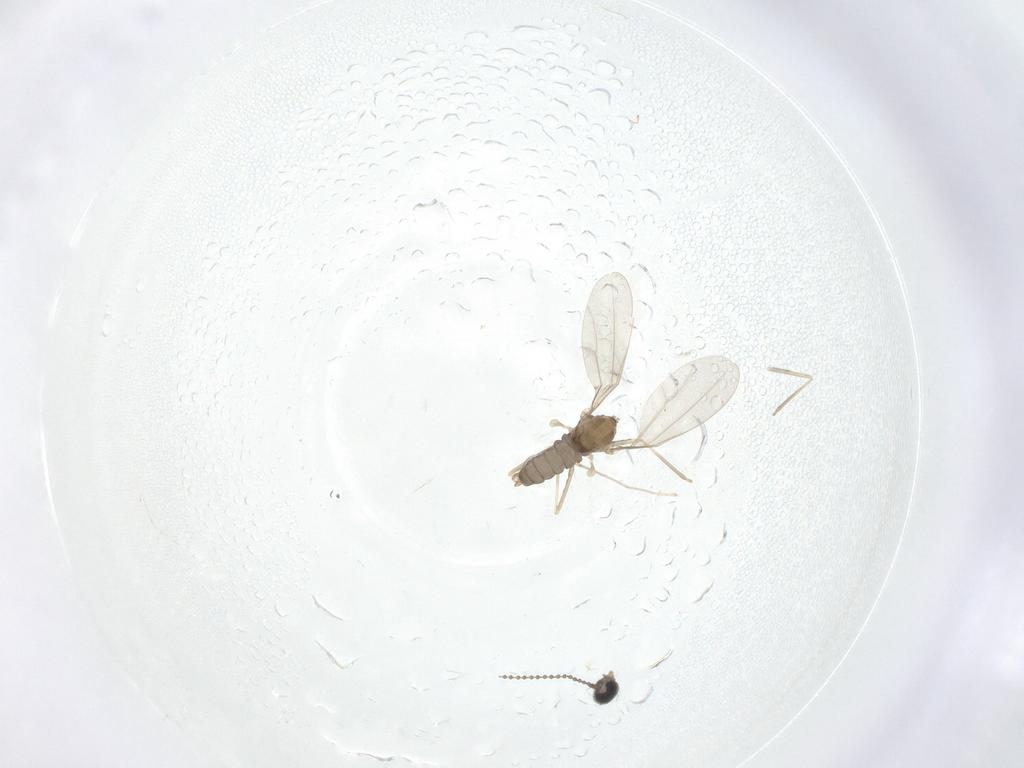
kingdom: Animalia
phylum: Arthropoda
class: Insecta
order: Diptera
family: Cecidomyiidae
